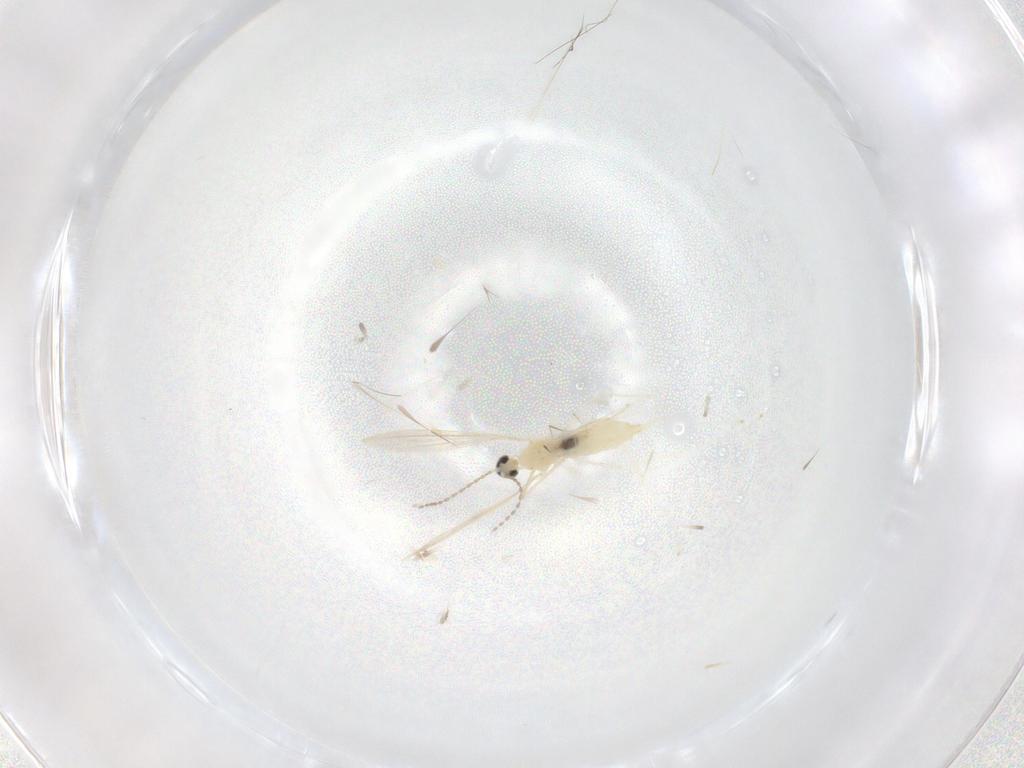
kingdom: Animalia
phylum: Arthropoda
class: Insecta
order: Diptera
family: Cecidomyiidae
